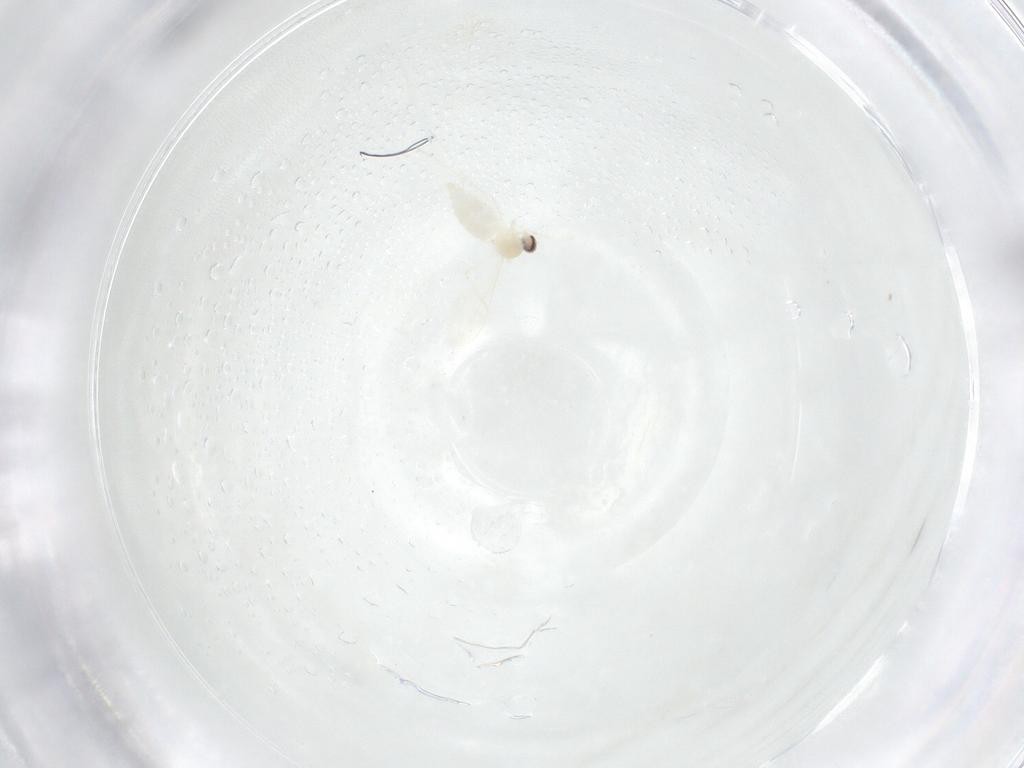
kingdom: Animalia
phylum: Arthropoda
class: Insecta
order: Diptera
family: Cecidomyiidae
